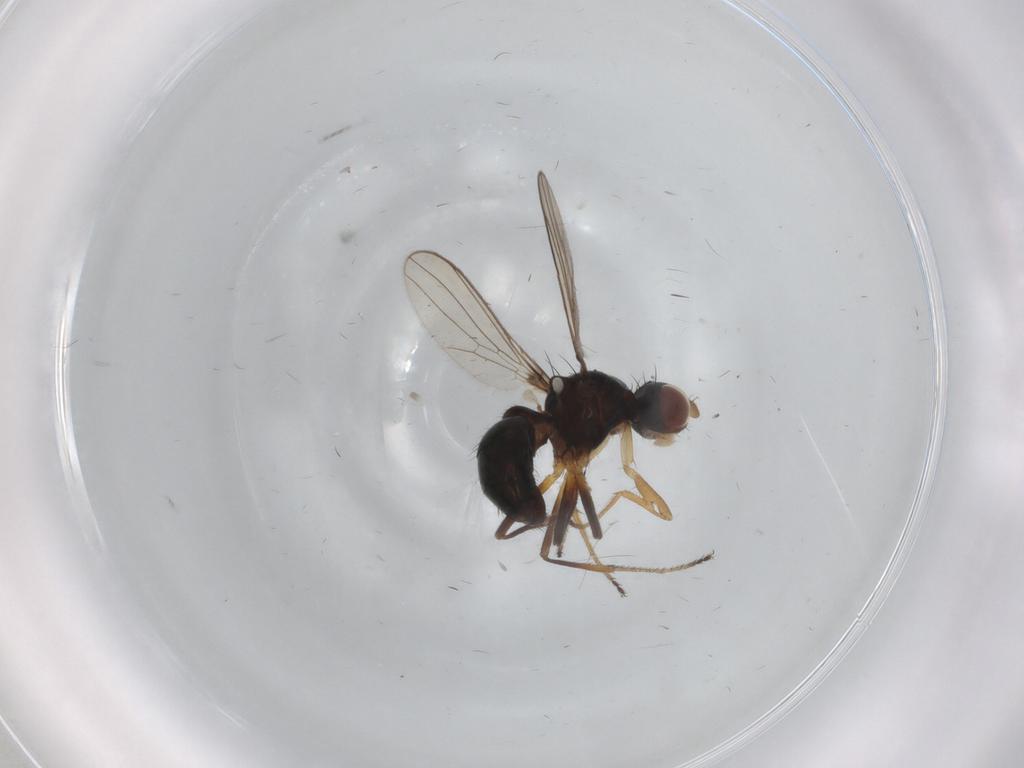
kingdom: Animalia
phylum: Arthropoda
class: Insecta
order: Diptera
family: Sepsidae
